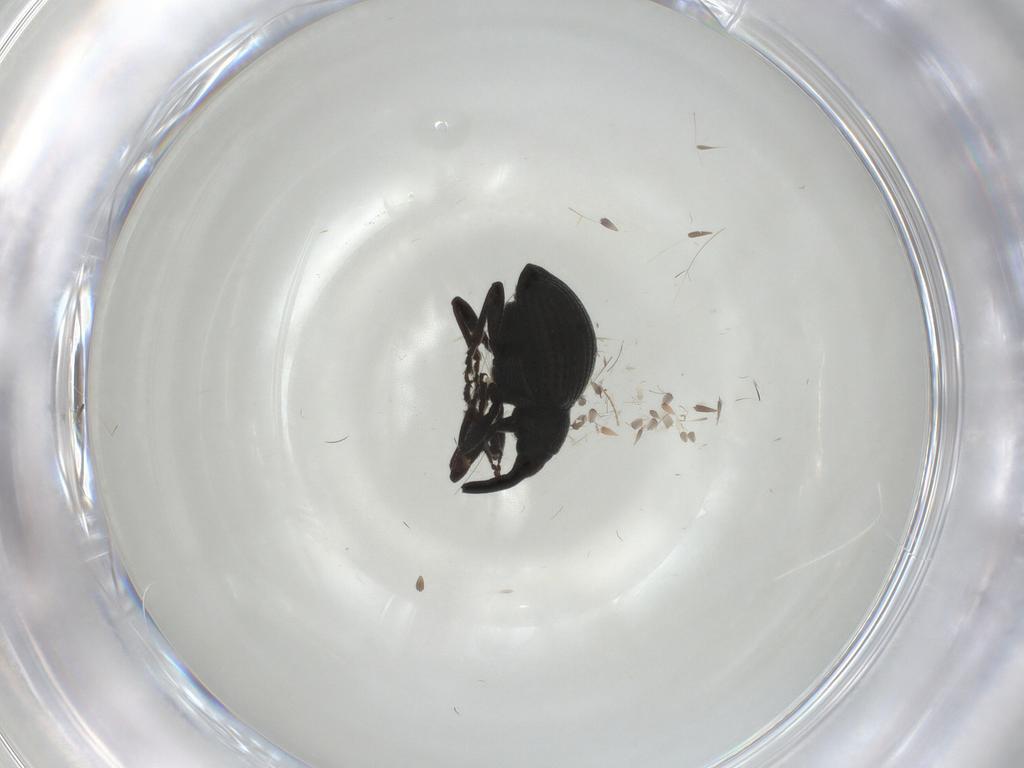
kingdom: Animalia
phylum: Arthropoda
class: Insecta
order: Coleoptera
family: Brentidae
